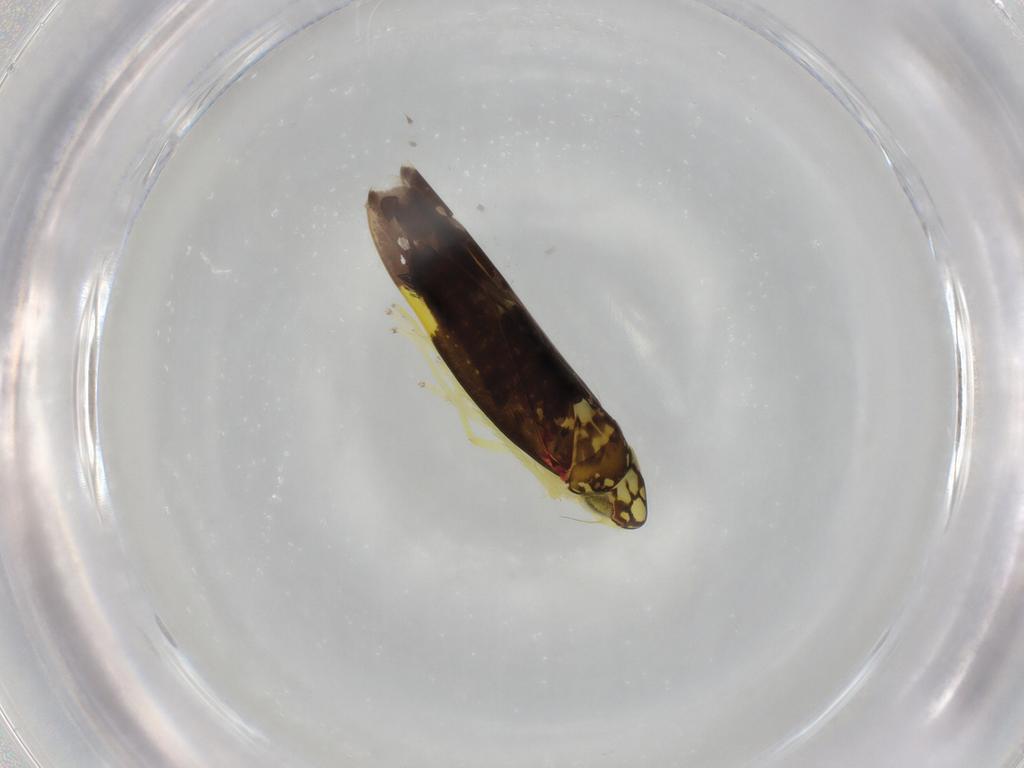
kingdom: Animalia
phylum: Arthropoda
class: Insecta
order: Hemiptera
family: Cicadellidae
